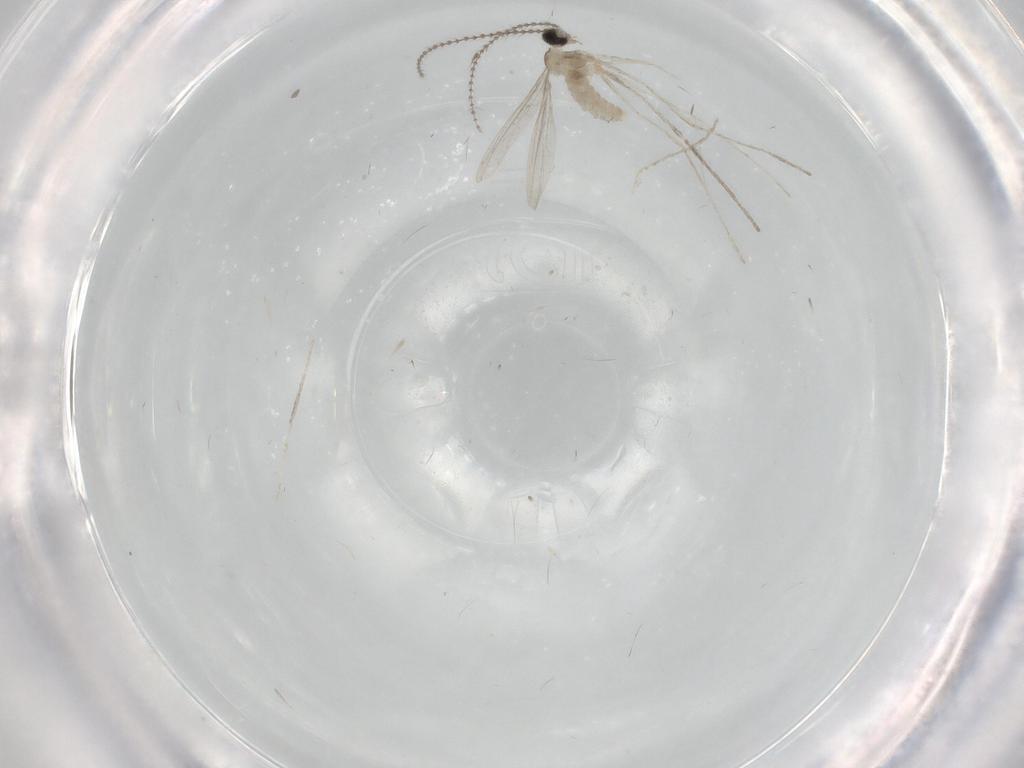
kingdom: Animalia
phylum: Arthropoda
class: Insecta
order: Diptera
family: Cecidomyiidae
